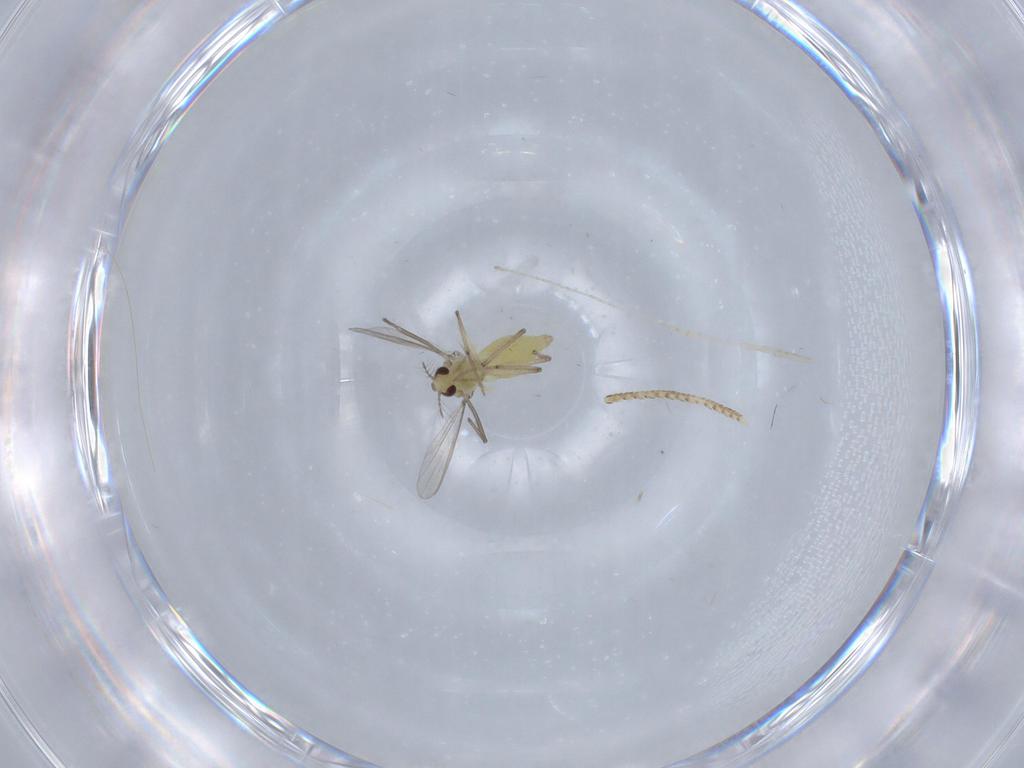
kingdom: Animalia
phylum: Arthropoda
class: Insecta
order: Diptera
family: Chironomidae
